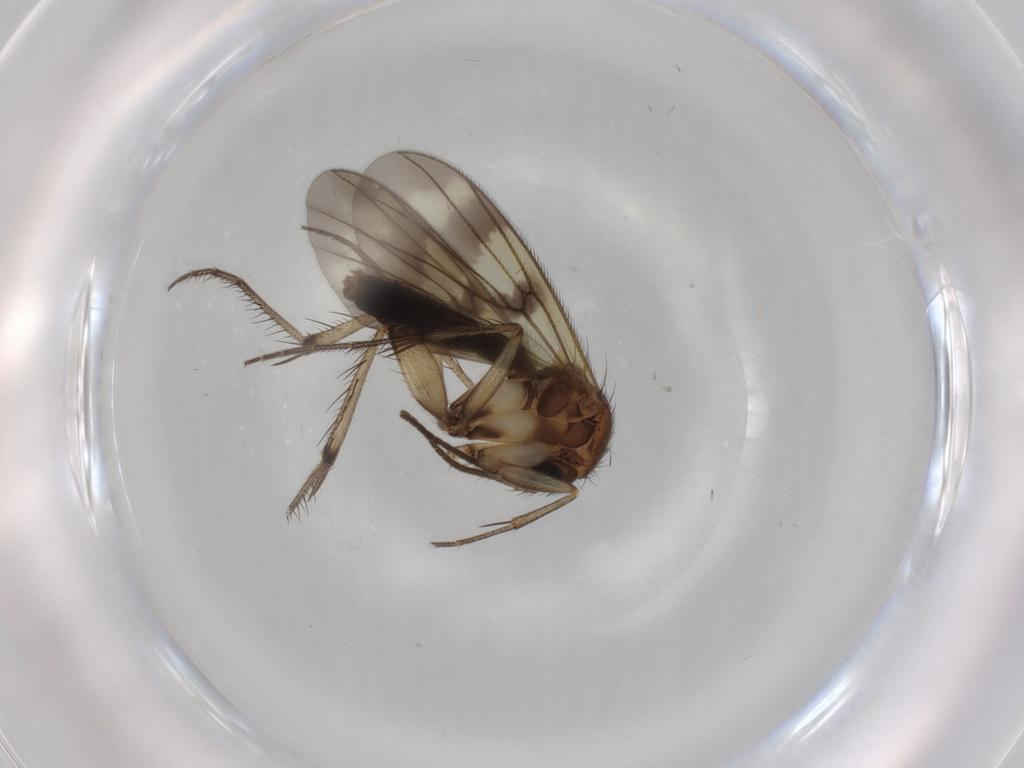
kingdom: Animalia
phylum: Arthropoda
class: Insecta
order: Diptera
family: Mycetophilidae
